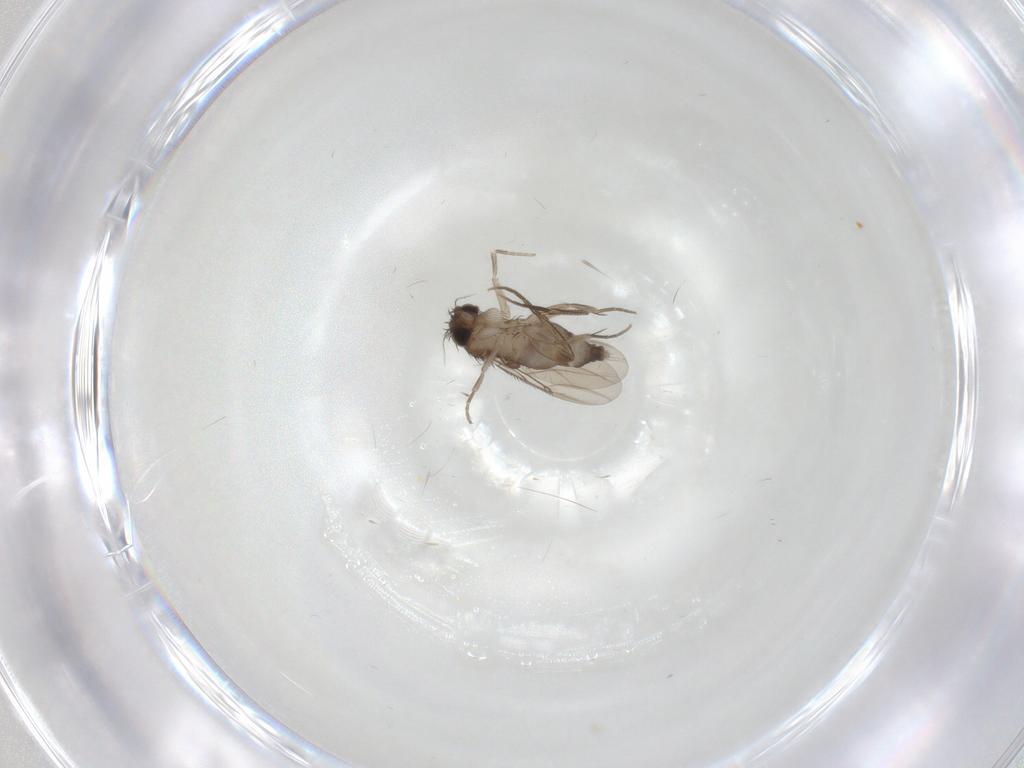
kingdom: Animalia
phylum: Arthropoda
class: Insecta
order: Diptera
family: Phoridae
